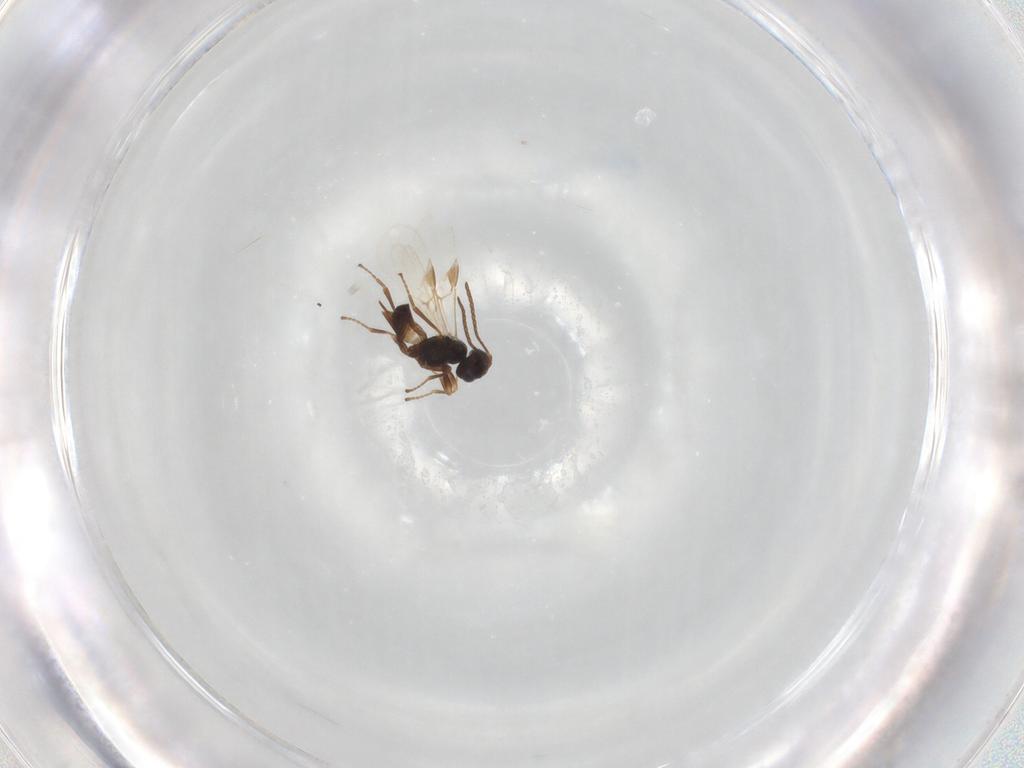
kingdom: Animalia
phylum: Arthropoda
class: Insecta
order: Hymenoptera
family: Braconidae
